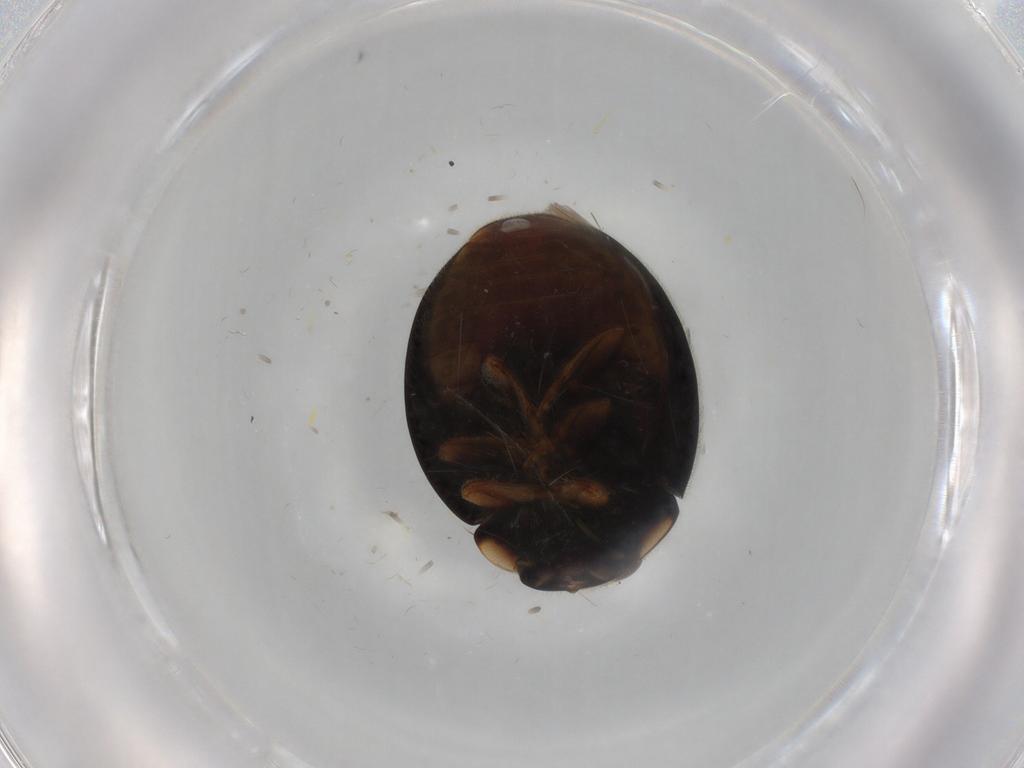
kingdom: Animalia
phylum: Arthropoda
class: Insecta
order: Coleoptera
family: Coccinellidae
